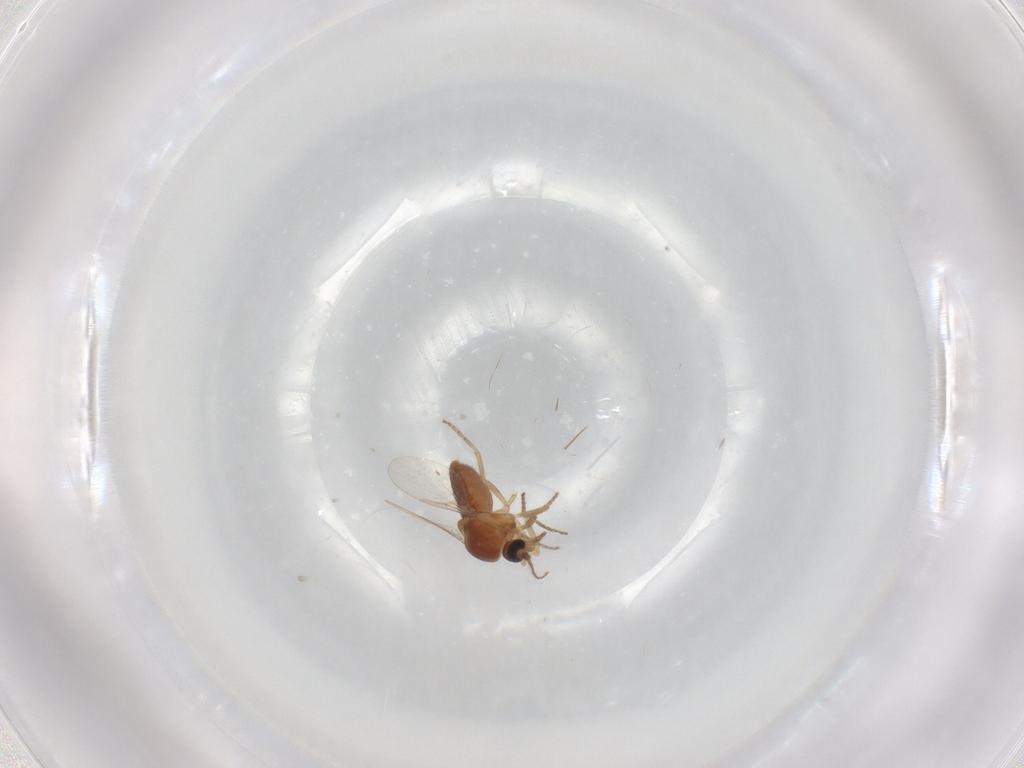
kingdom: Animalia
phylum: Arthropoda
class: Insecta
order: Diptera
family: Ceratopogonidae
